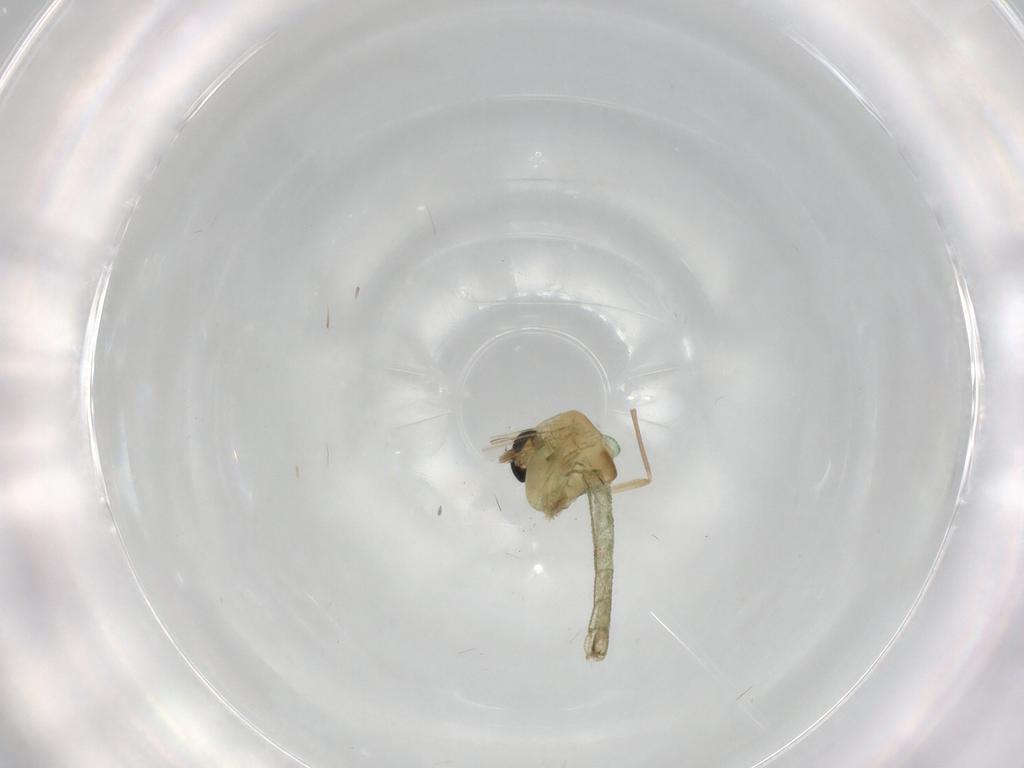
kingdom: Animalia
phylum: Arthropoda
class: Insecta
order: Diptera
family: Chironomidae
